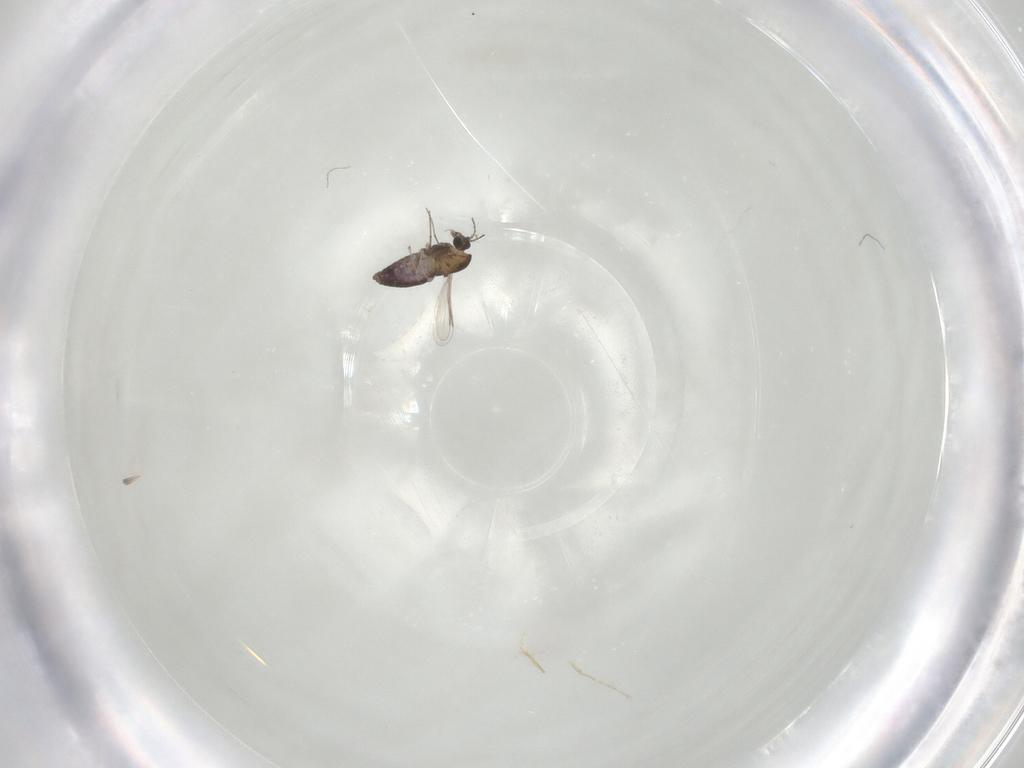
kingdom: Animalia
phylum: Arthropoda
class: Insecta
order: Diptera
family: Chironomidae
